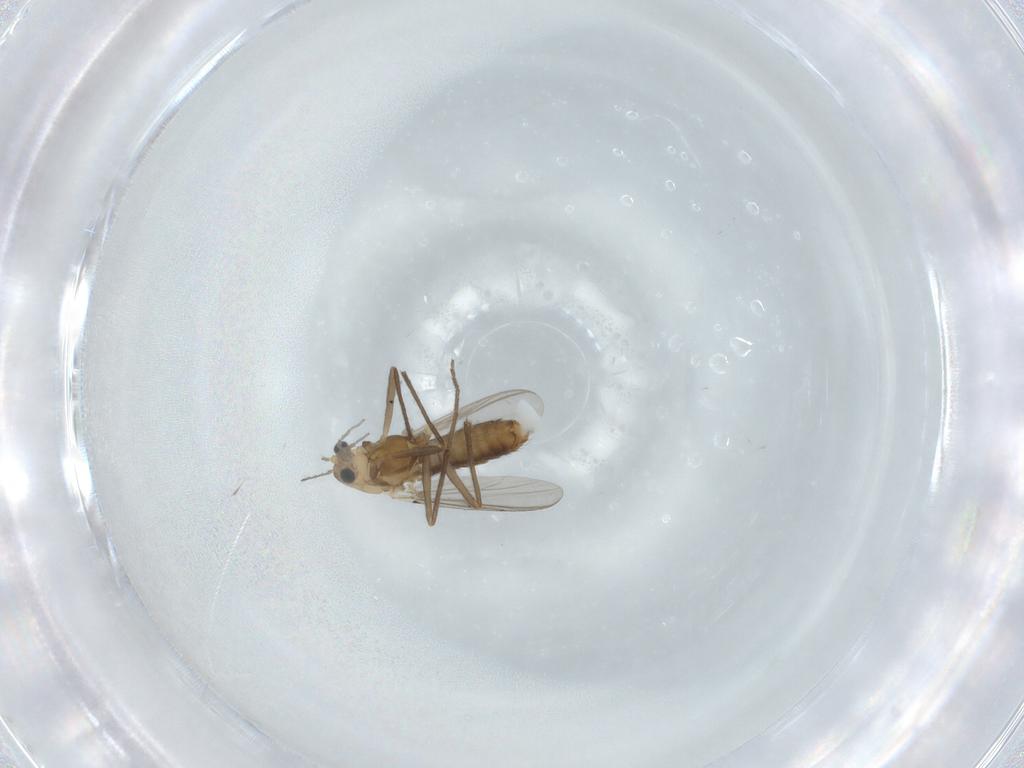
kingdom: Animalia
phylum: Arthropoda
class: Insecta
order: Diptera
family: Chironomidae
